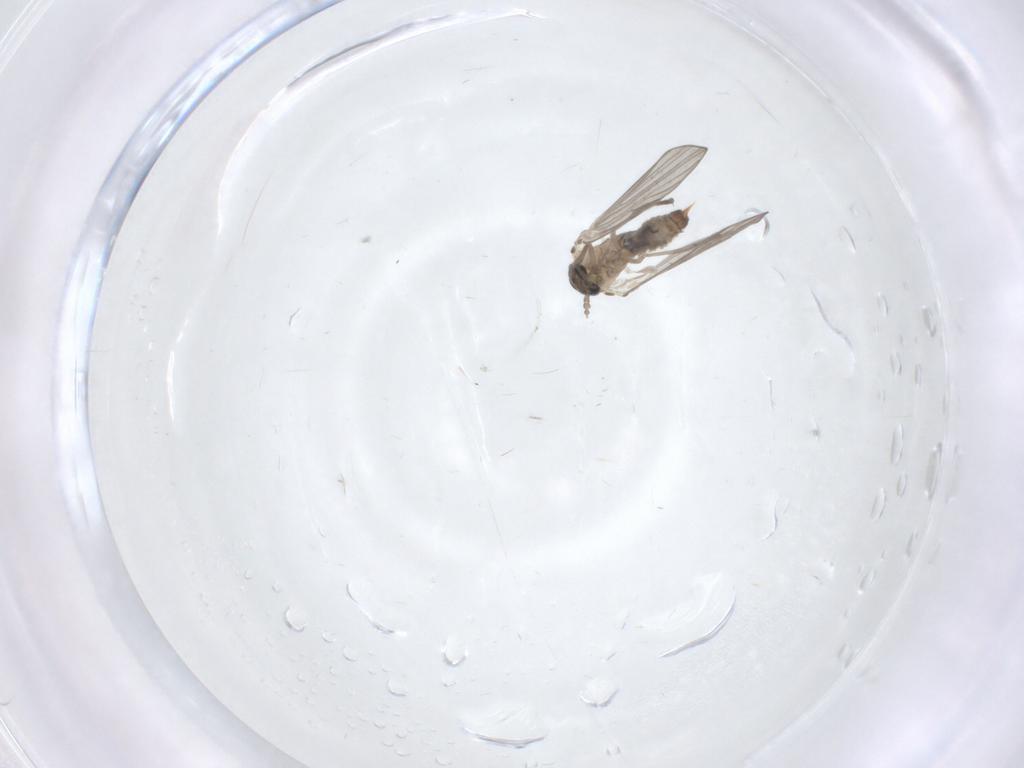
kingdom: Animalia
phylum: Arthropoda
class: Insecta
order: Diptera
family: Psychodidae
